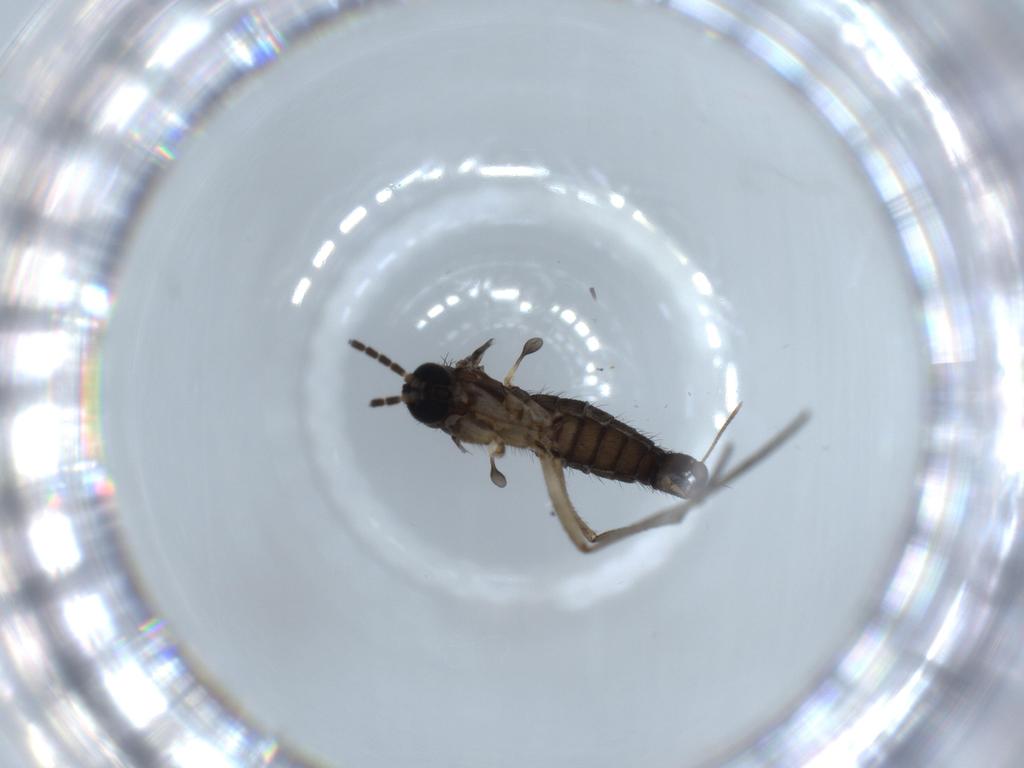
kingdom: Animalia
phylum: Arthropoda
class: Insecta
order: Diptera
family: Sciaridae
